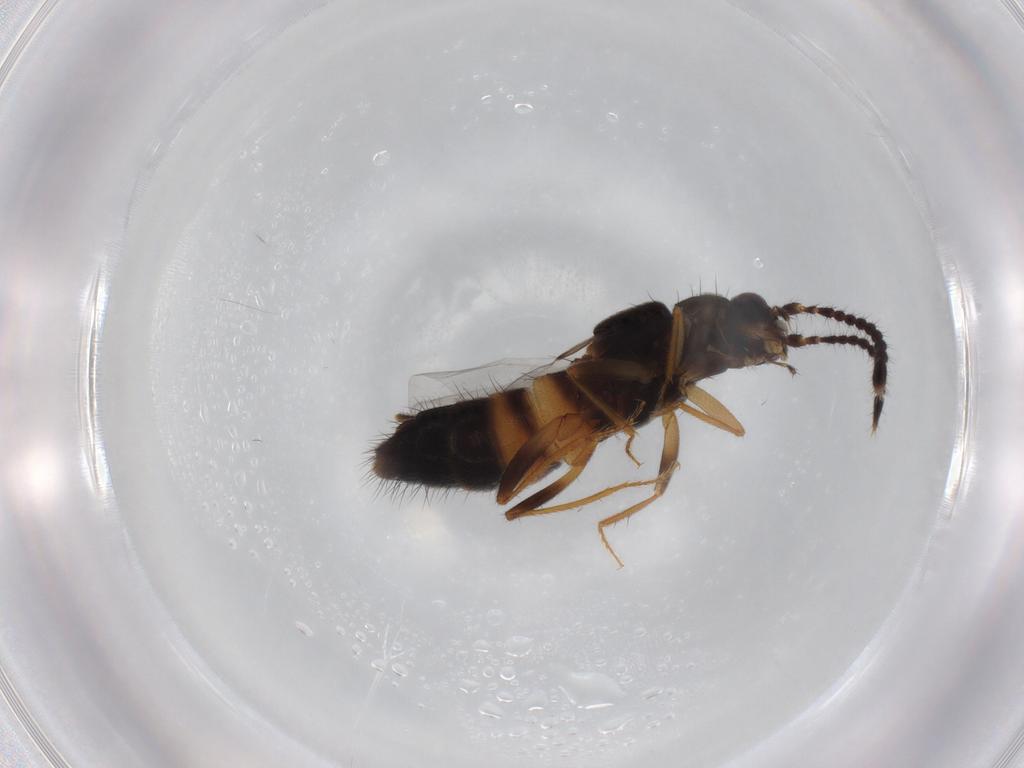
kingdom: Animalia
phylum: Arthropoda
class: Insecta
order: Coleoptera
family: Staphylinidae
